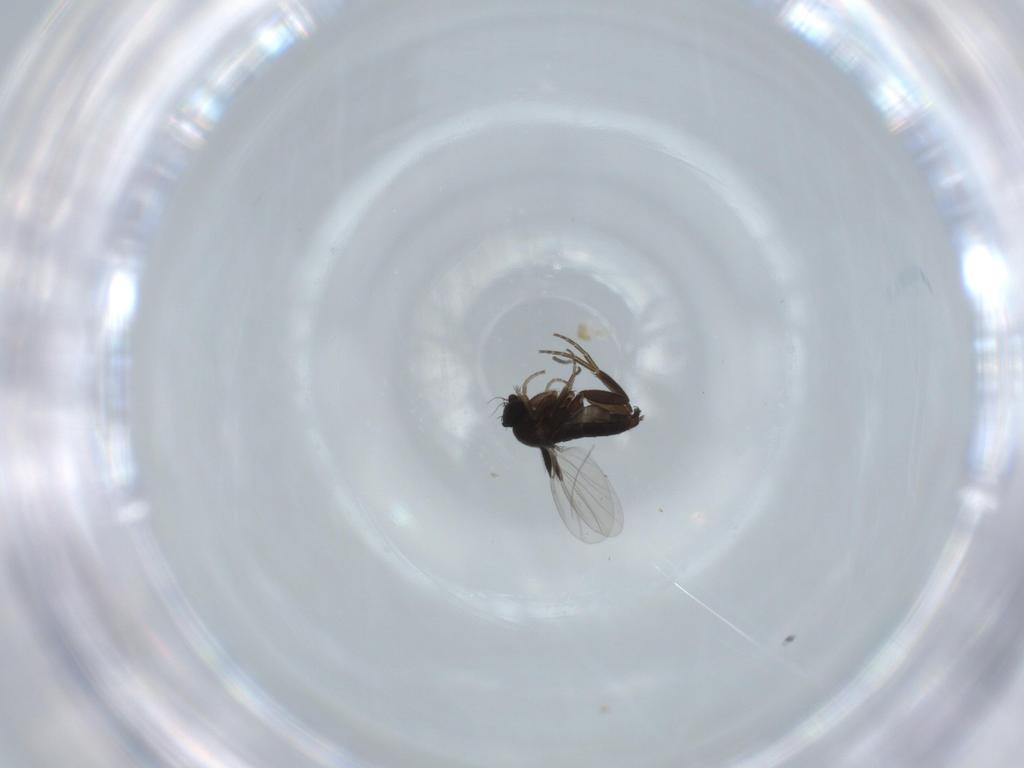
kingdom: Animalia
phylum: Arthropoda
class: Insecta
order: Diptera
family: Sciaridae
